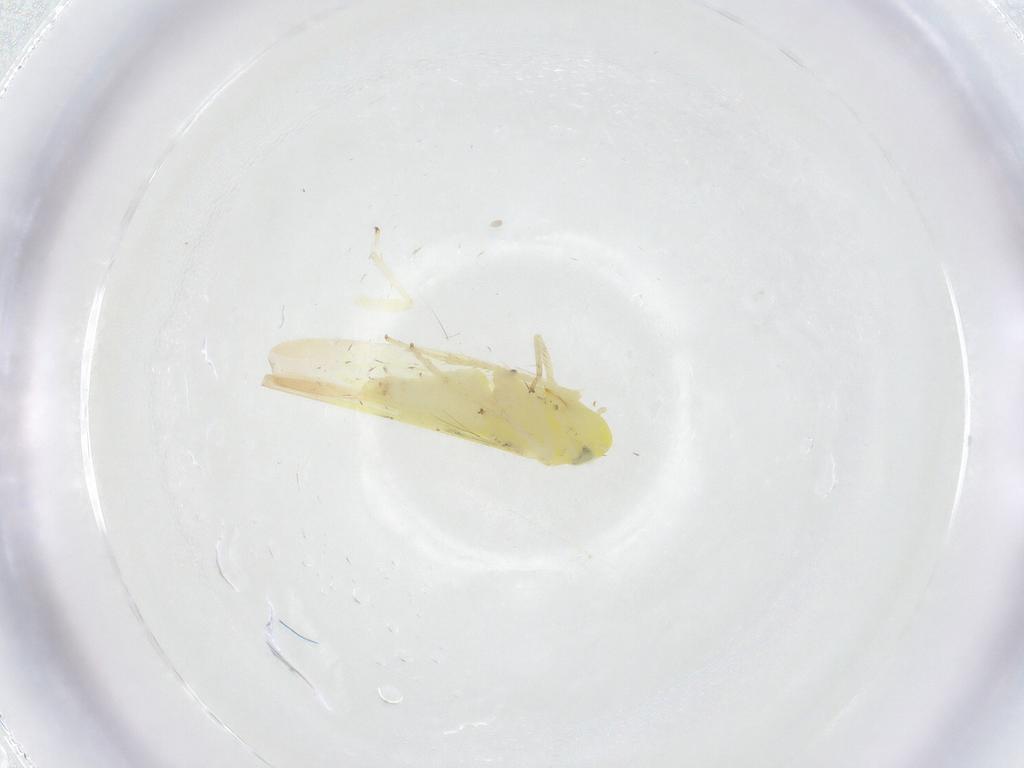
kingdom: Animalia
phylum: Arthropoda
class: Insecta
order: Hemiptera
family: Cicadellidae
